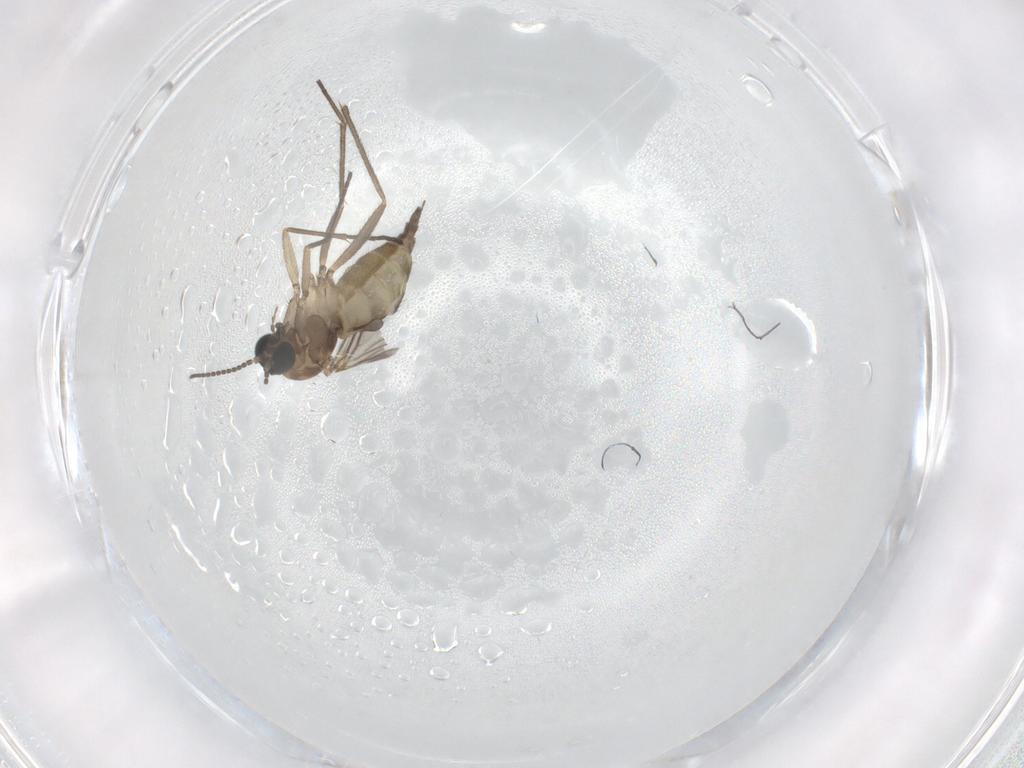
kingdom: Animalia
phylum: Arthropoda
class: Insecta
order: Diptera
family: Sciaridae
